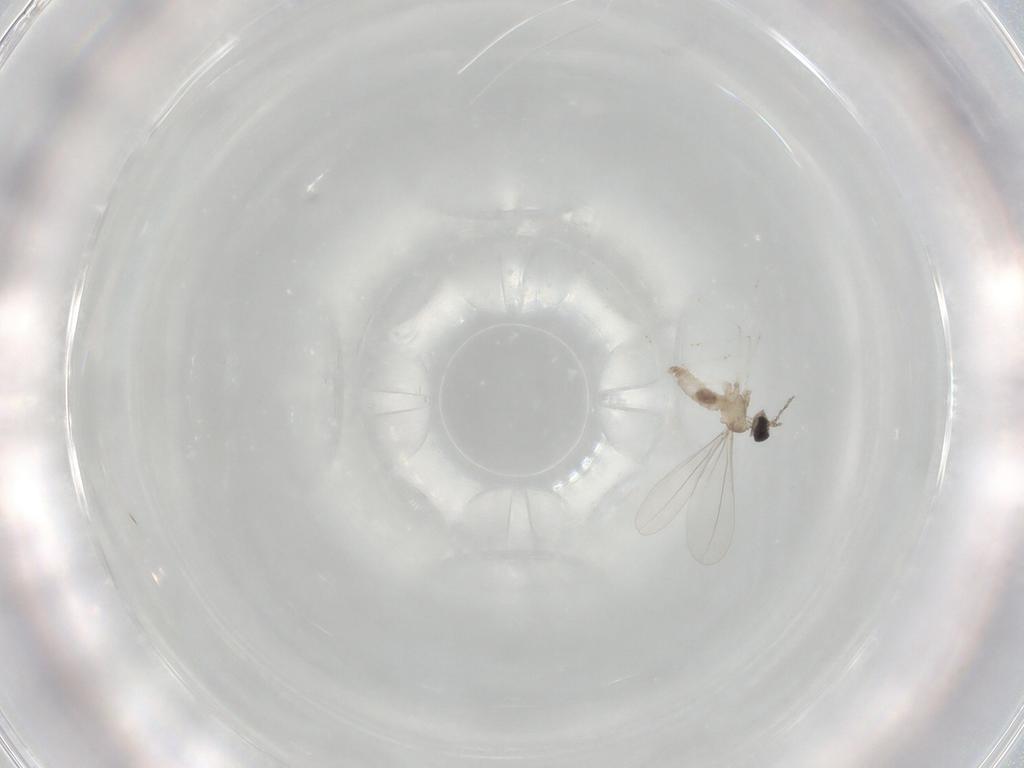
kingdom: Animalia
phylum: Arthropoda
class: Insecta
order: Diptera
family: Cecidomyiidae
